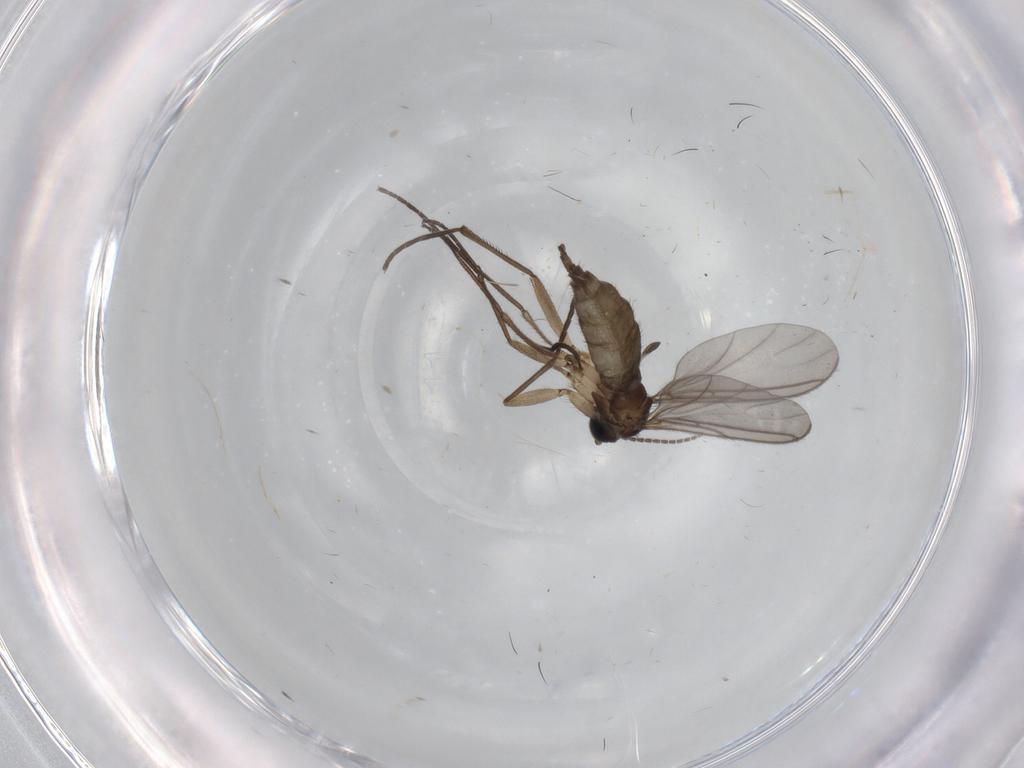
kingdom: Animalia
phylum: Arthropoda
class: Insecta
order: Diptera
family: Sciaridae
